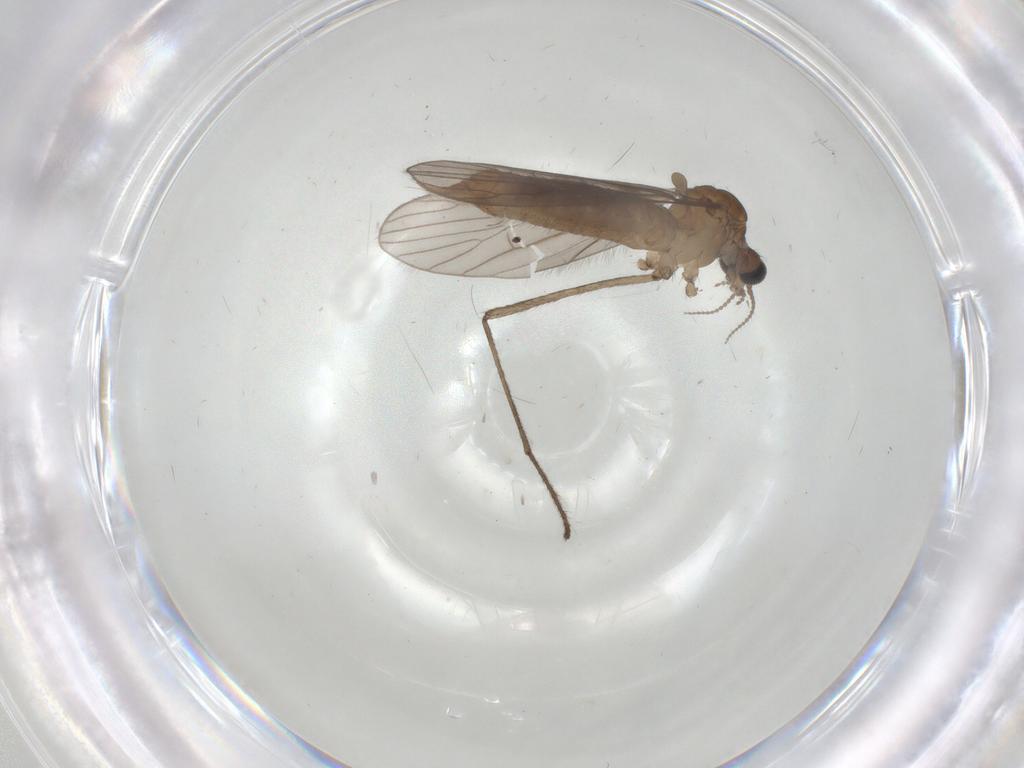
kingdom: Animalia
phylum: Arthropoda
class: Insecta
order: Diptera
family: Limoniidae
